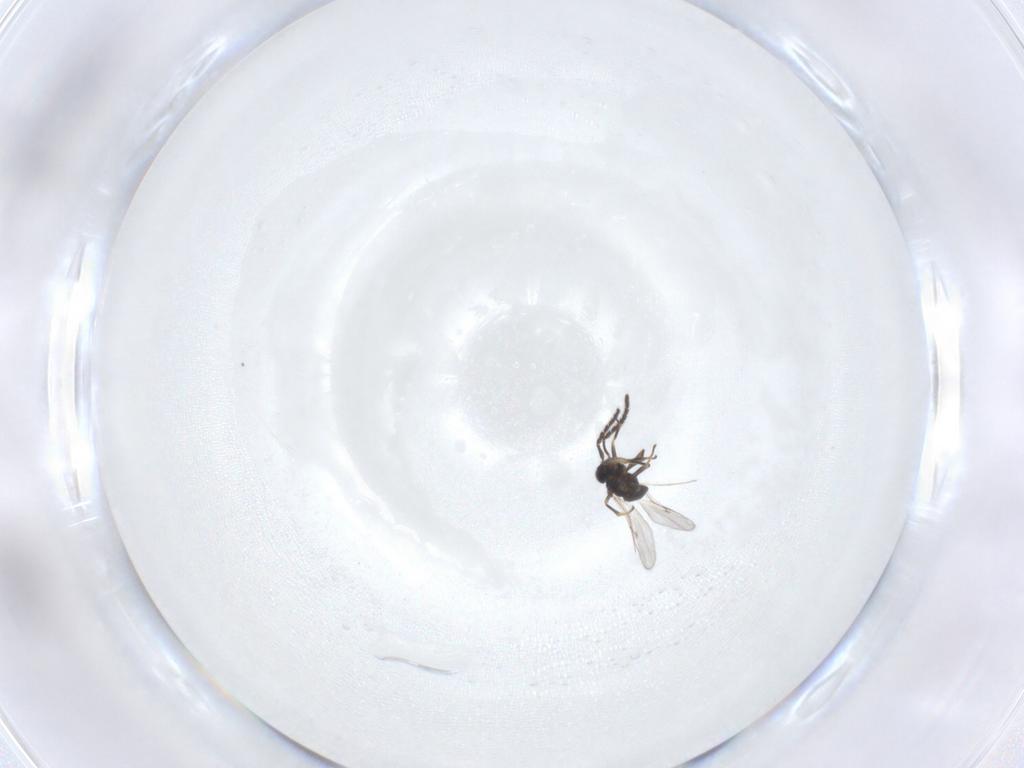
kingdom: Animalia
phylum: Arthropoda
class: Insecta
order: Hymenoptera
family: Encyrtidae
